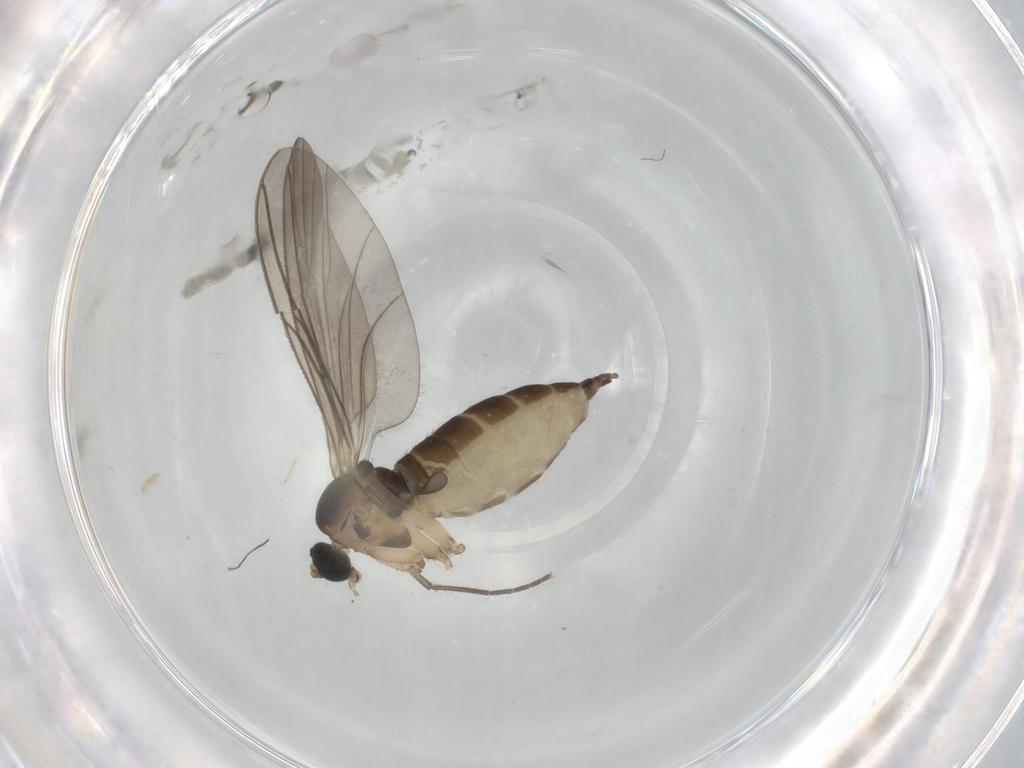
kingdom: Animalia
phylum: Arthropoda
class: Insecta
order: Diptera
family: Sciaridae
